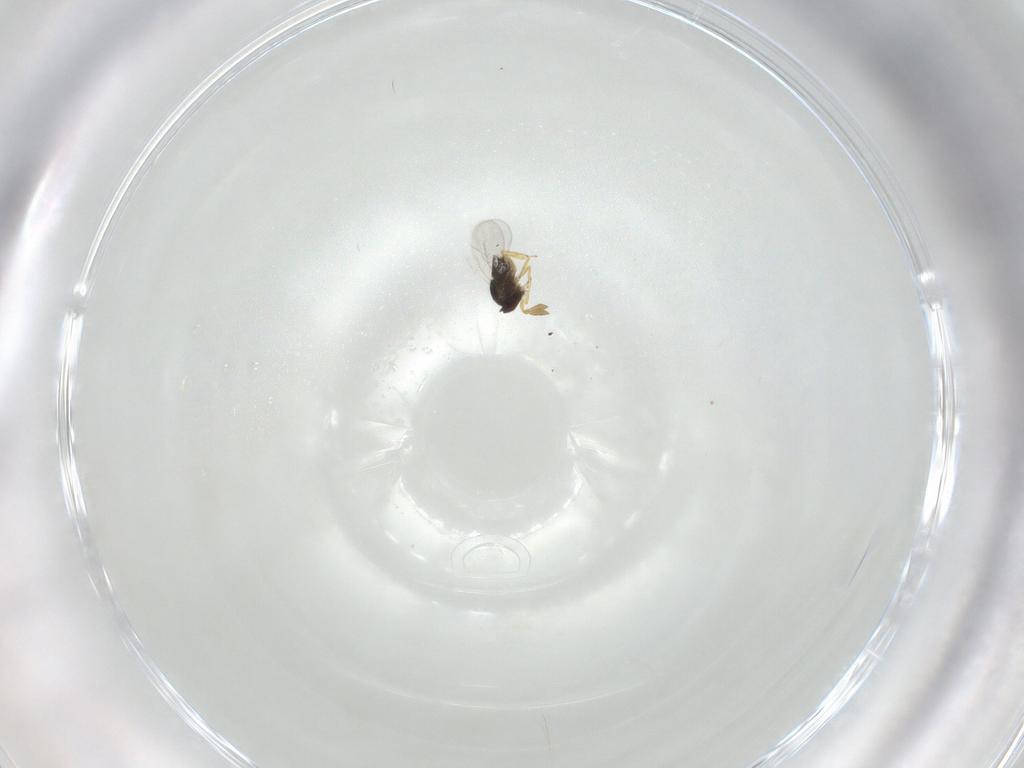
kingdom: Animalia
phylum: Arthropoda
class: Insecta
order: Hymenoptera
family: Encyrtidae
